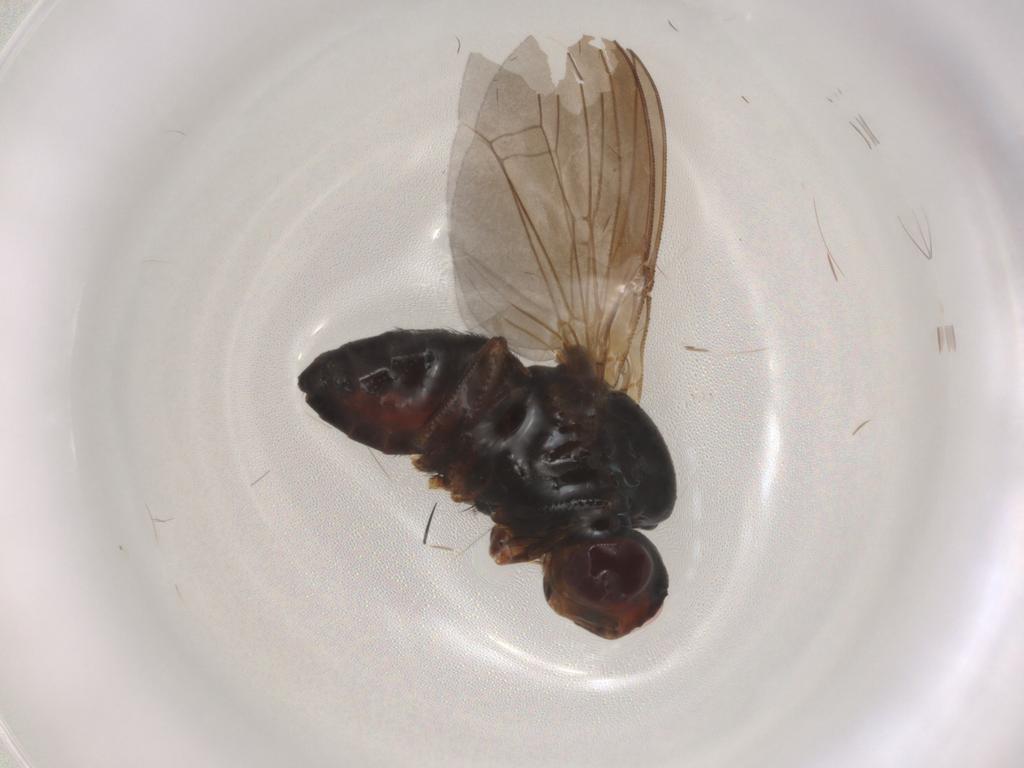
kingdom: Animalia
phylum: Arthropoda
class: Insecta
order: Diptera
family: Heleomyzidae
